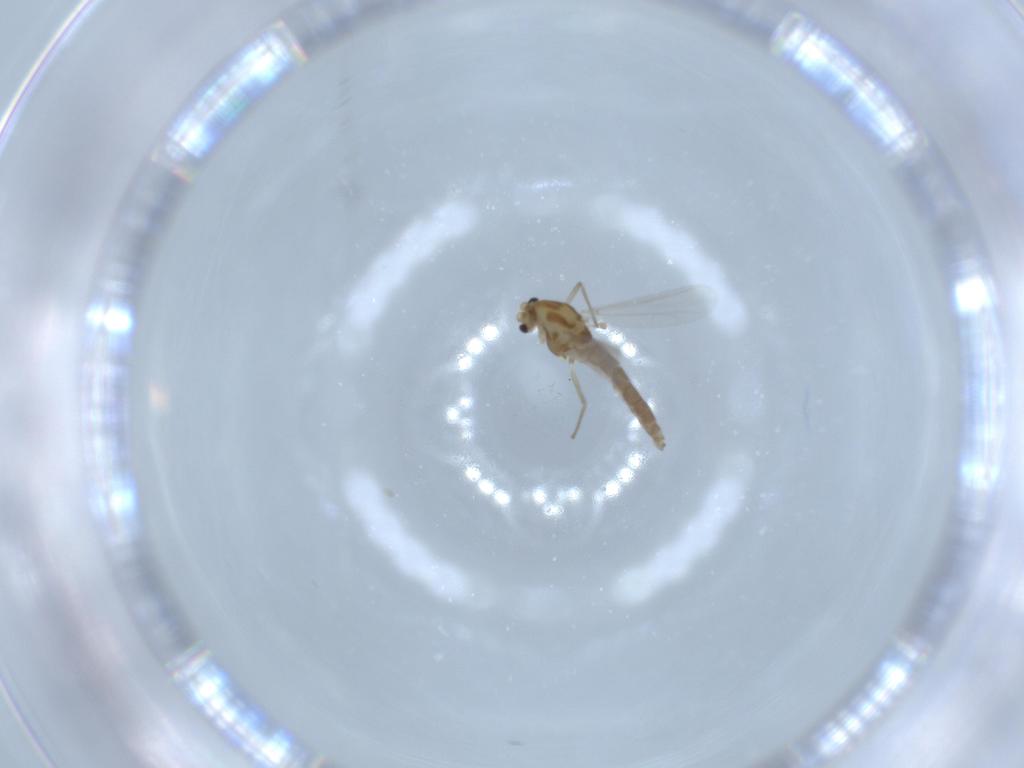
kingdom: Animalia
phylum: Arthropoda
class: Insecta
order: Diptera
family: Chironomidae
